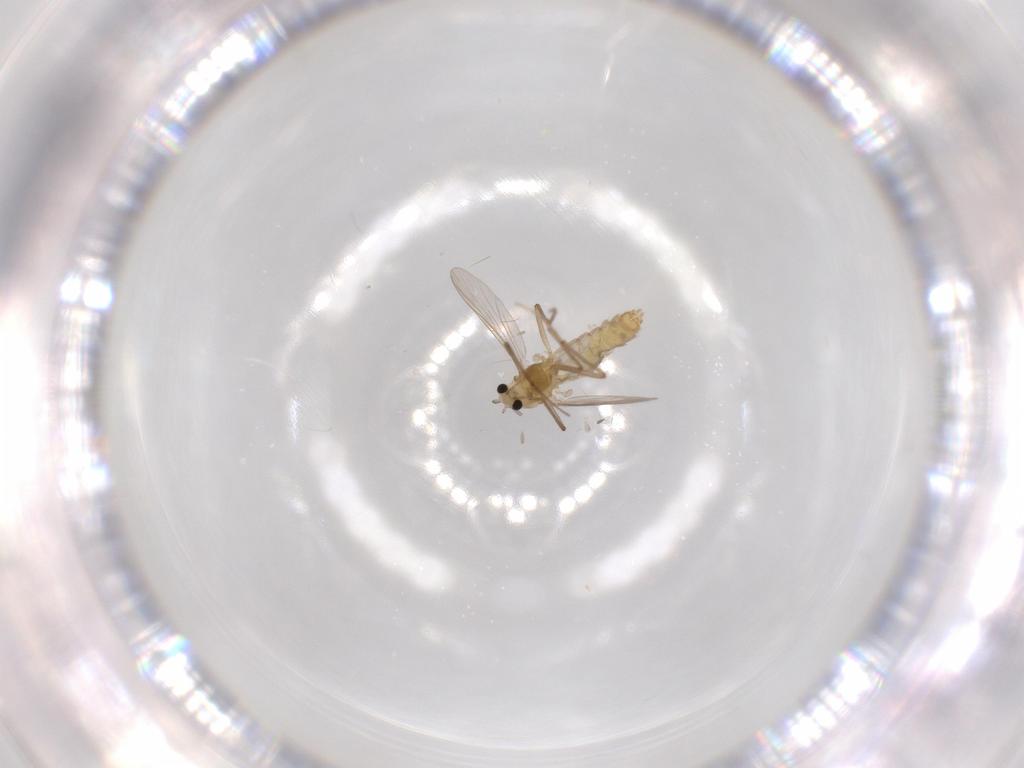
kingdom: Animalia
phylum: Arthropoda
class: Insecta
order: Diptera
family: Chironomidae
